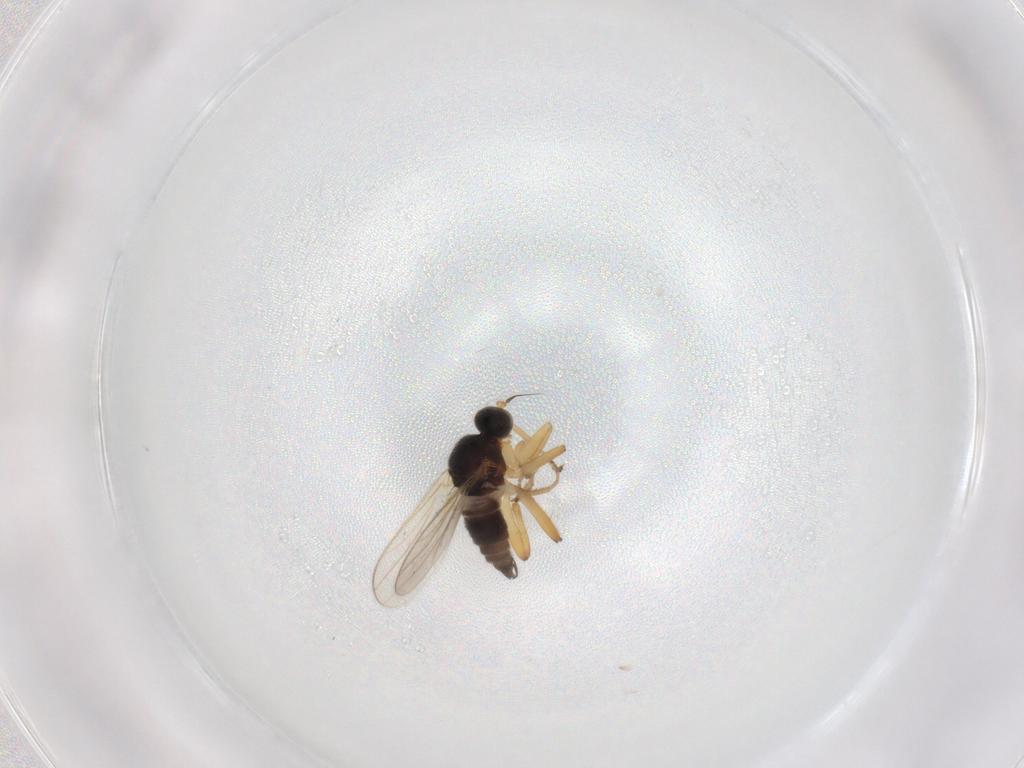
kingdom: Animalia
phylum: Arthropoda
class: Insecta
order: Diptera
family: Hybotidae
